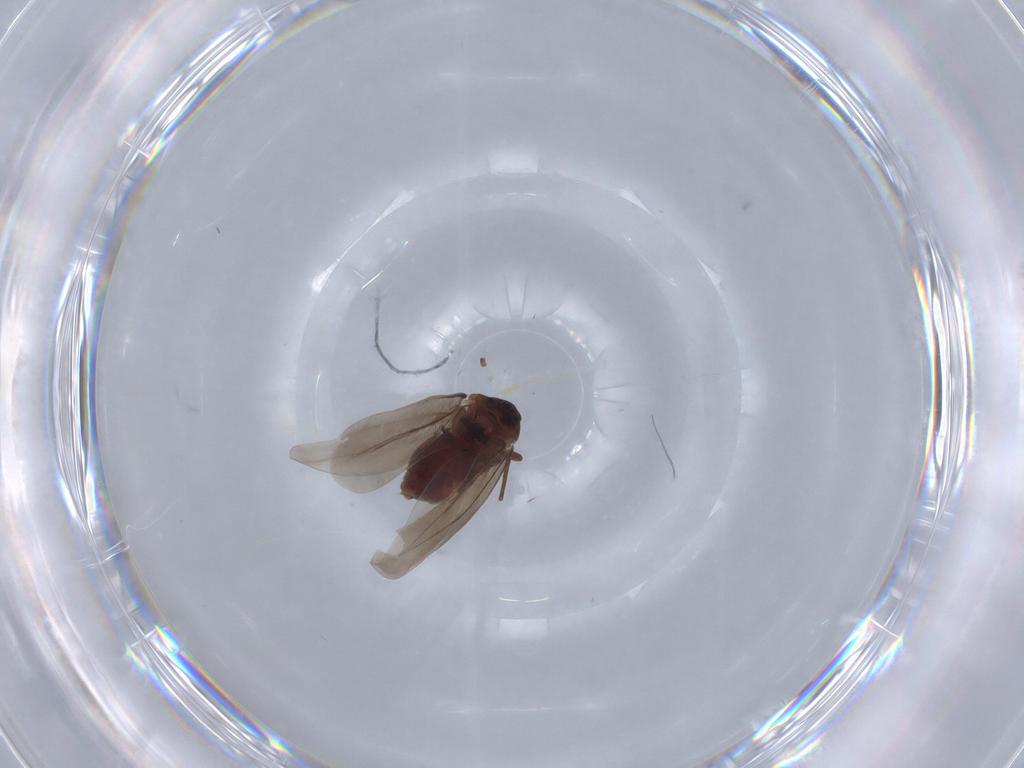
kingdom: Animalia
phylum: Arthropoda
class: Insecta
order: Hemiptera
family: Aleyrodidae
